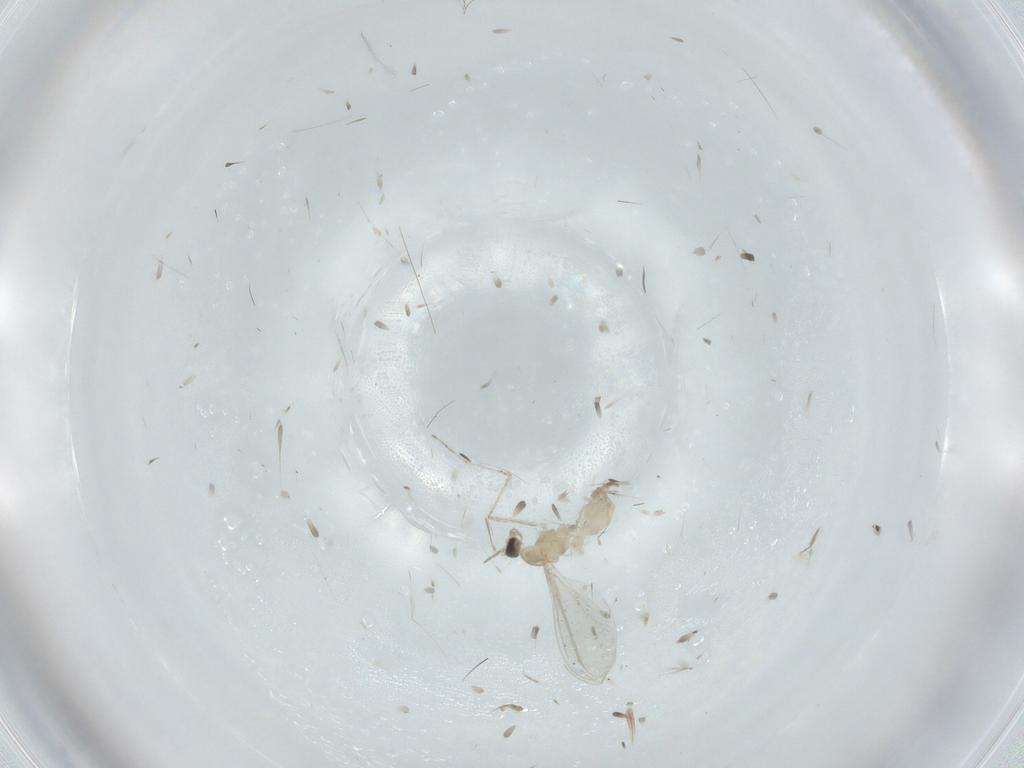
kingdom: Animalia
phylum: Arthropoda
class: Insecta
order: Diptera
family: Cecidomyiidae
